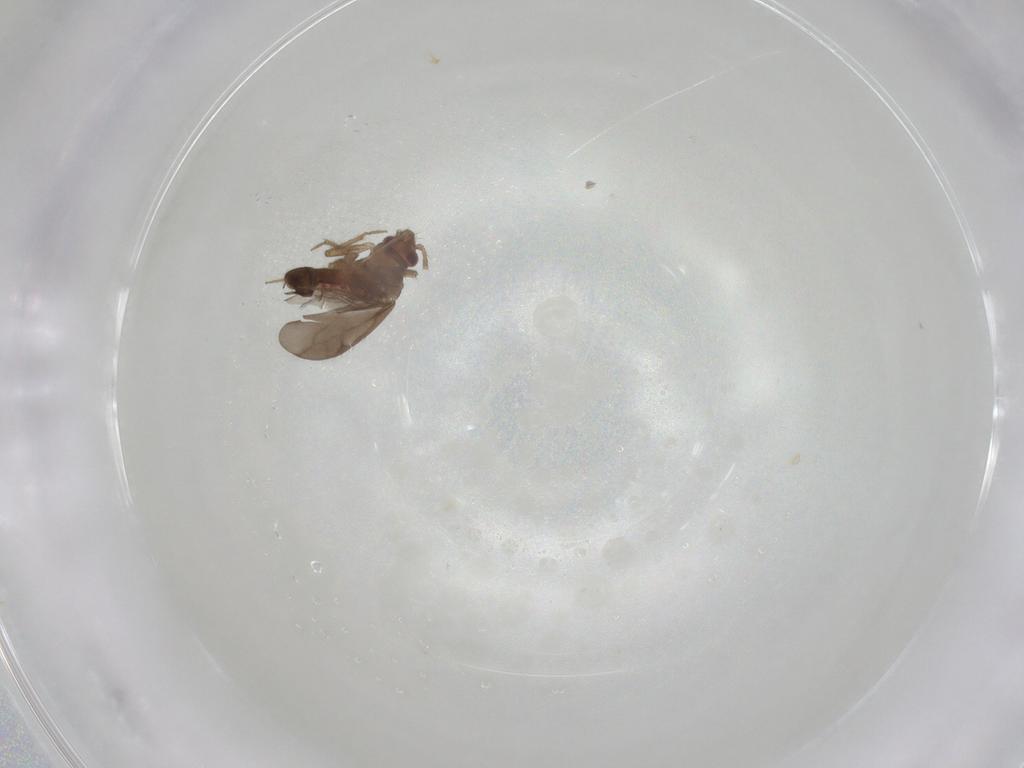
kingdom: Animalia
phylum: Arthropoda
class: Insecta
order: Hemiptera
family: Ceratocombidae
